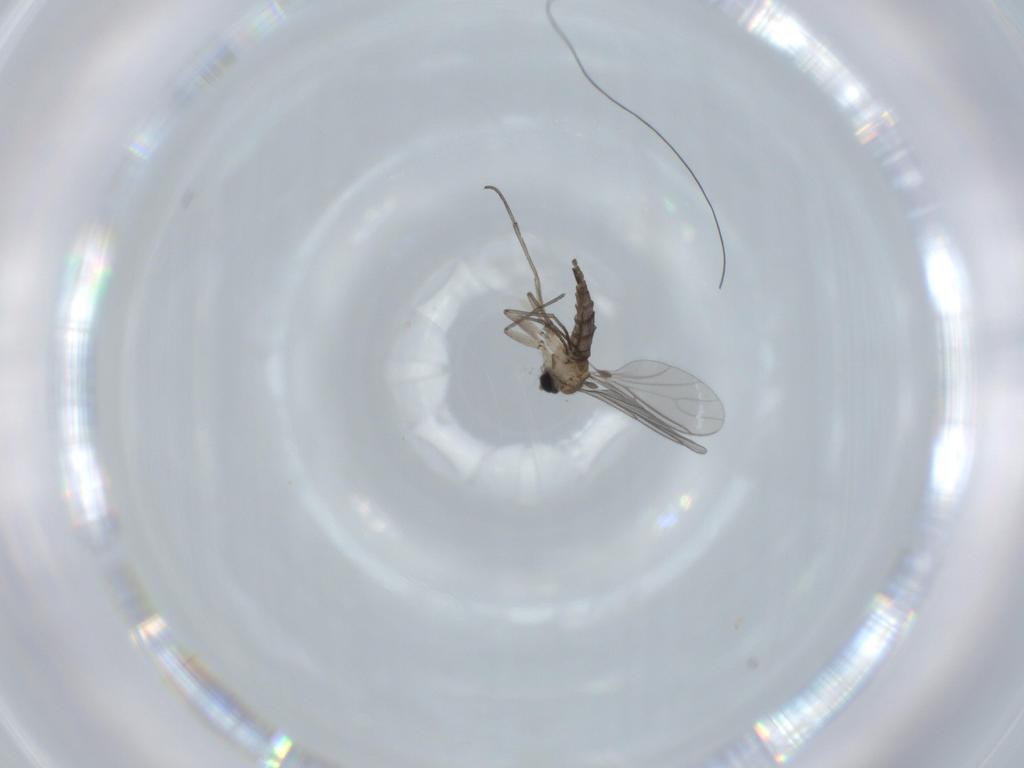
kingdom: Animalia
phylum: Arthropoda
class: Insecta
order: Diptera
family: Sciaridae
